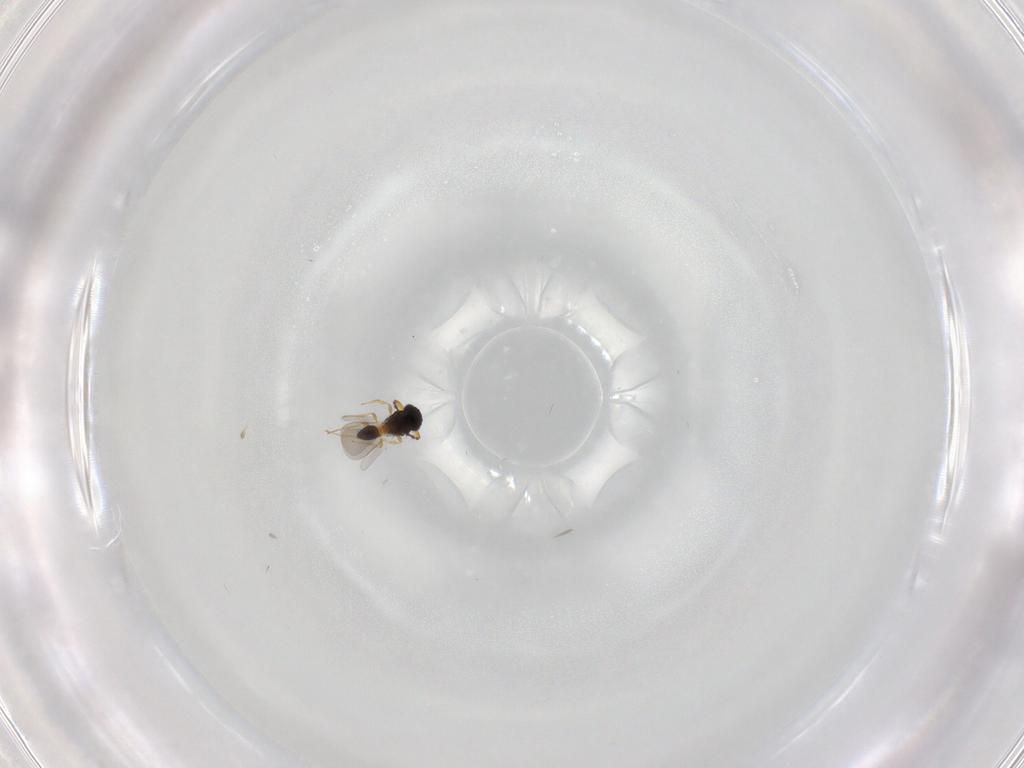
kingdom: Animalia
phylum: Arthropoda
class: Insecta
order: Hymenoptera
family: Platygastridae
